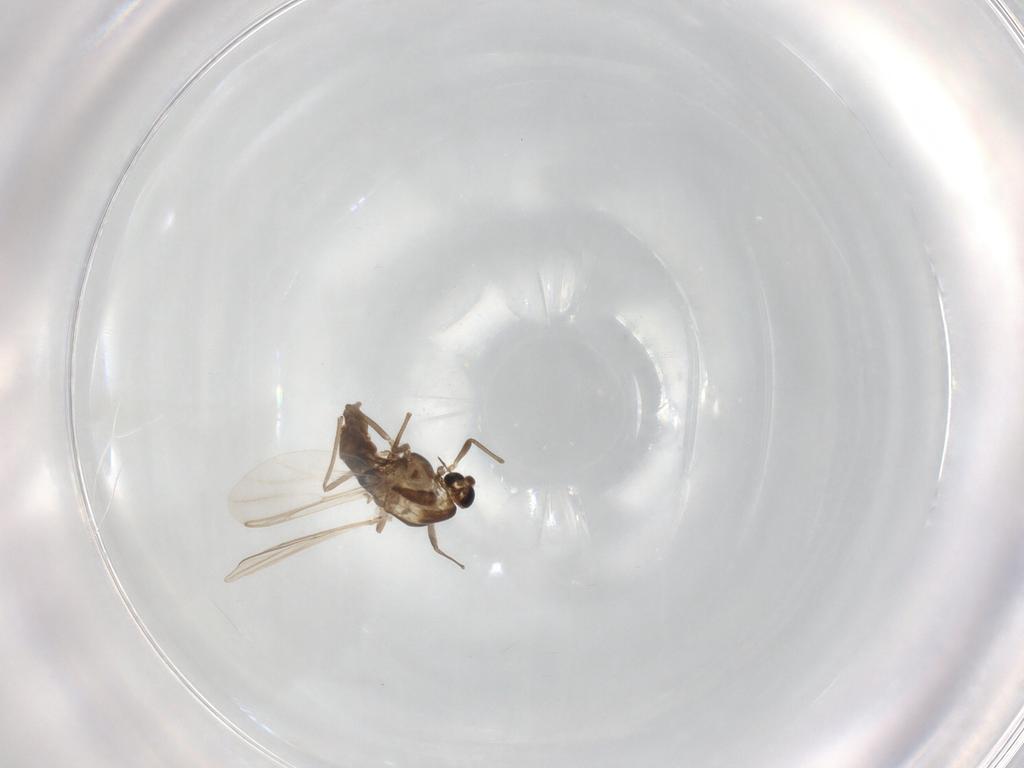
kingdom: Animalia
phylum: Arthropoda
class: Insecta
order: Diptera
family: Chironomidae
